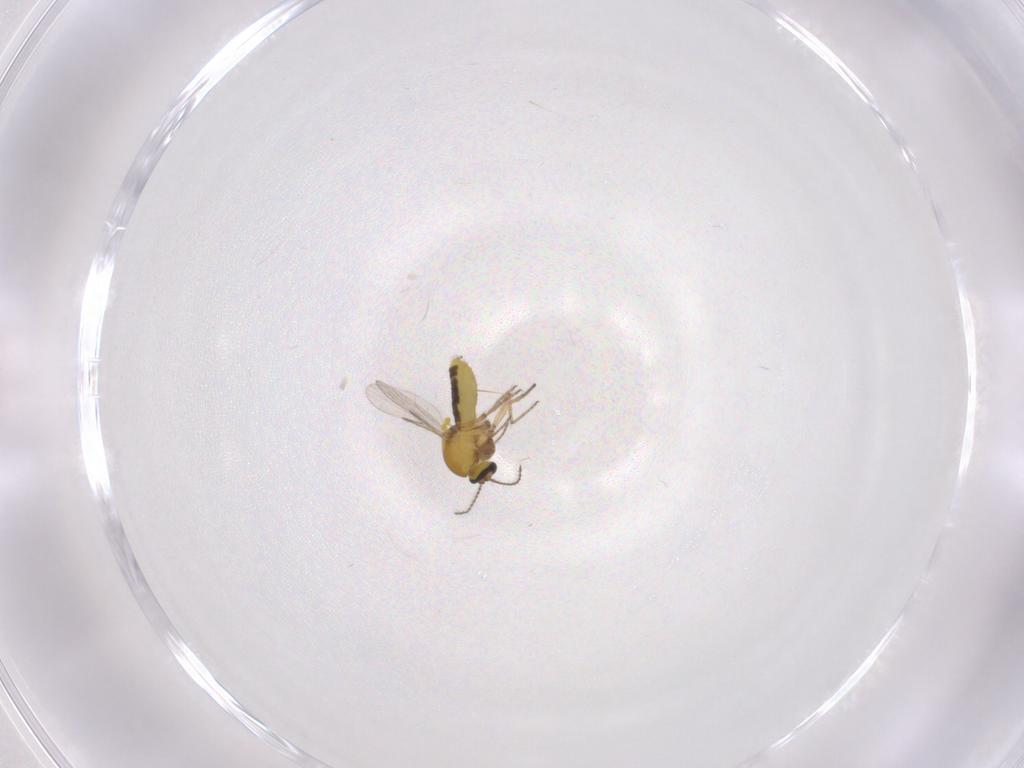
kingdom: Animalia
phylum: Arthropoda
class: Insecta
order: Diptera
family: Ceratopogonidae
